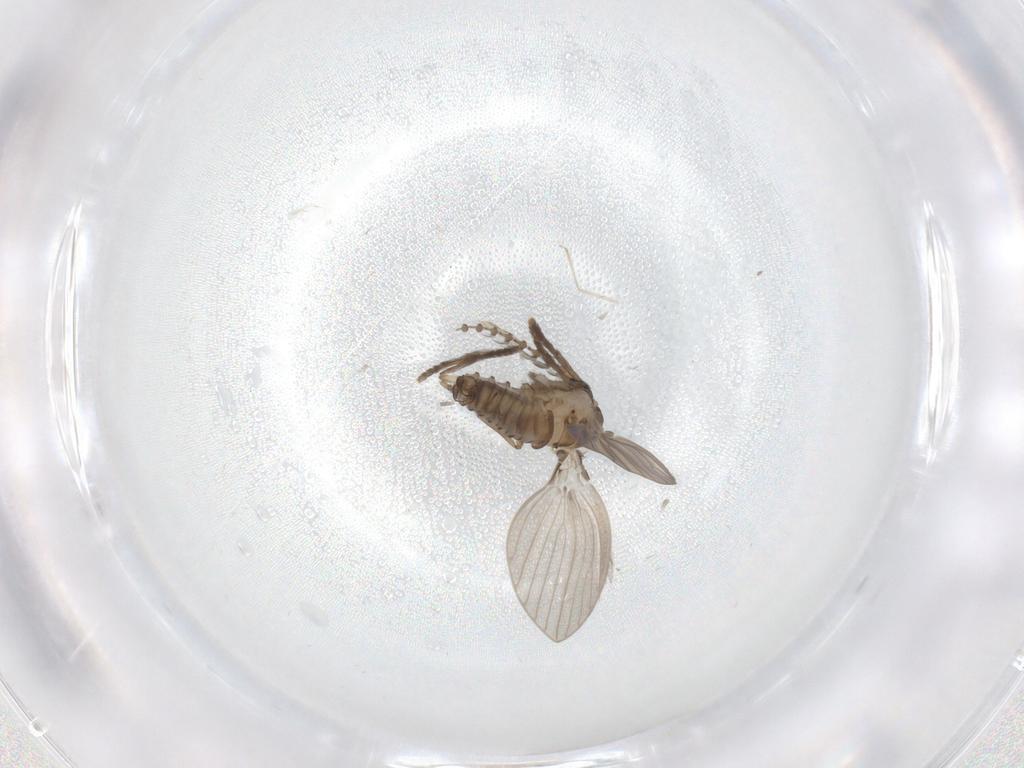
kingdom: Animalia
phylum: Arthropoda
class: Insecta
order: Diptera
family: Psychodidae
